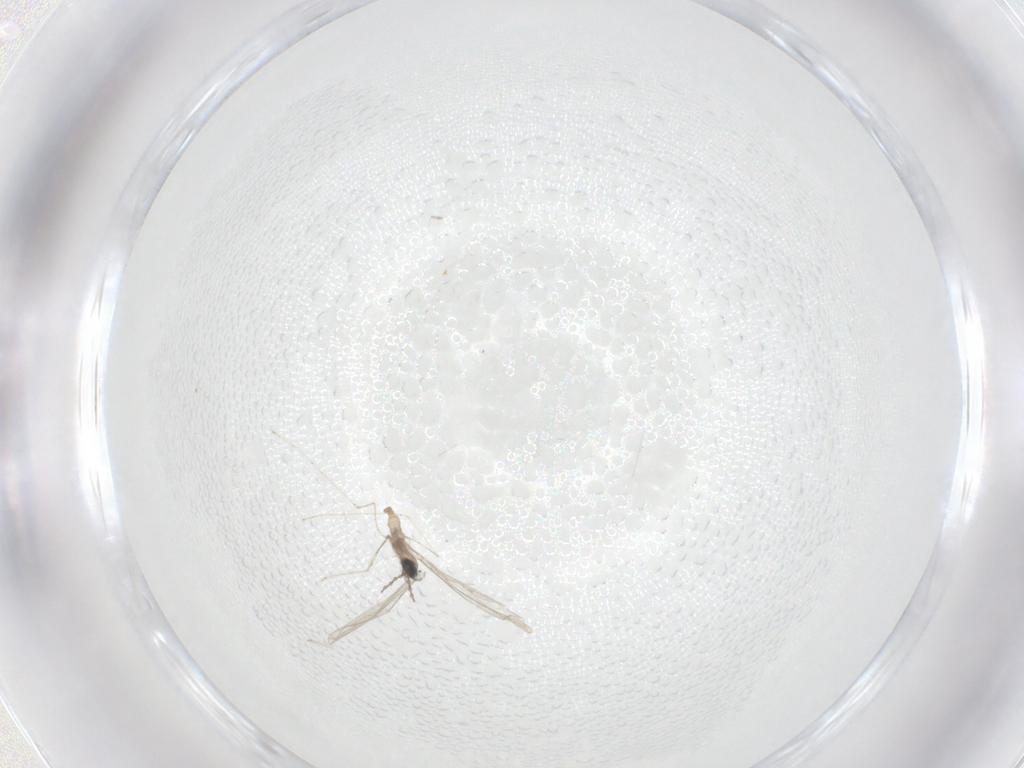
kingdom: Animalia
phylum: Arthropoda
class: Insecta
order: Diptera
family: Cecidomyiidae
